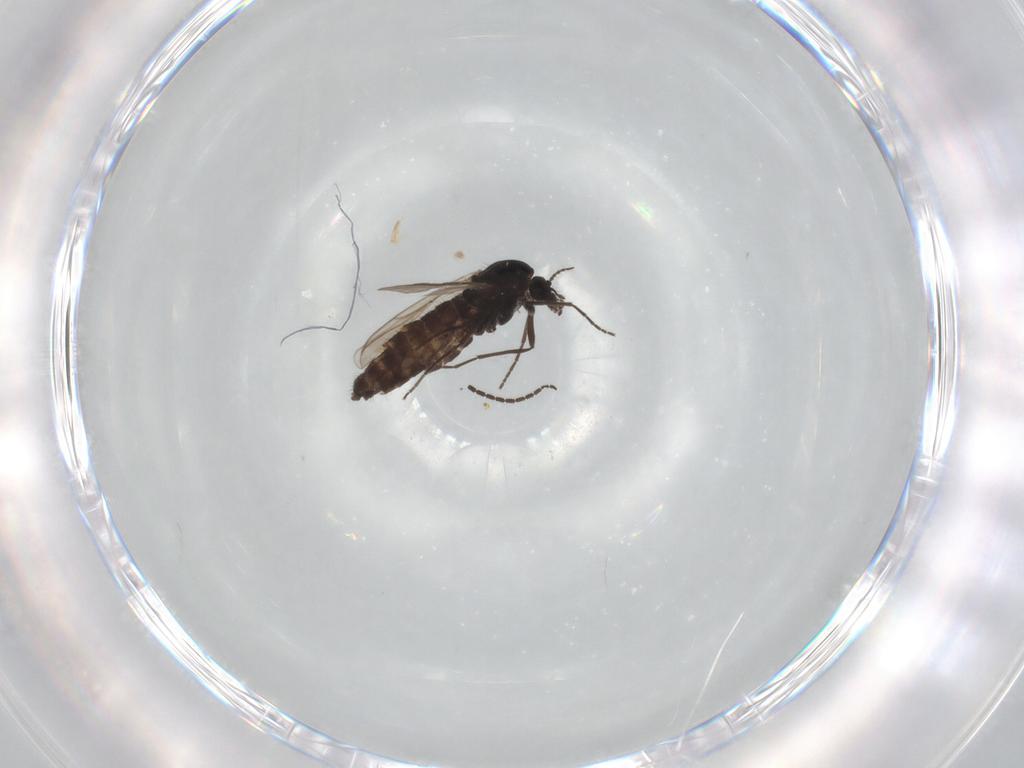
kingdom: Animalia
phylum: Arthropoda
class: Insecta
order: Diptera
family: Chironomidae
